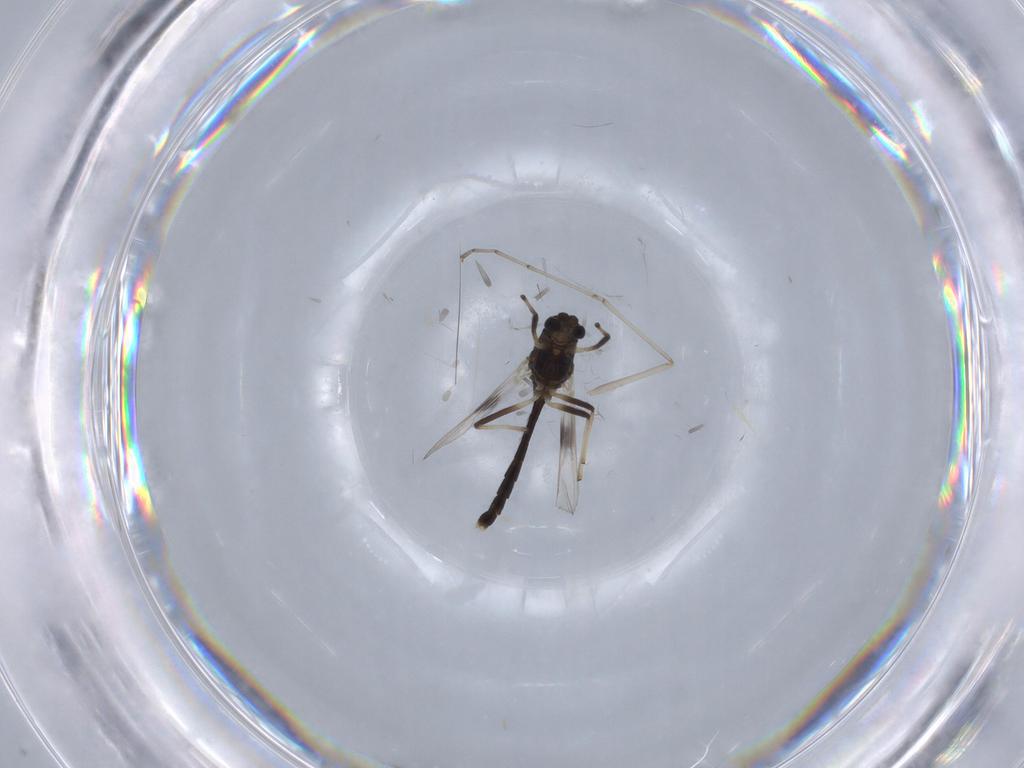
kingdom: Animalia
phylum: Arthropoda
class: Insecta
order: Diptera
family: Chironomidae
